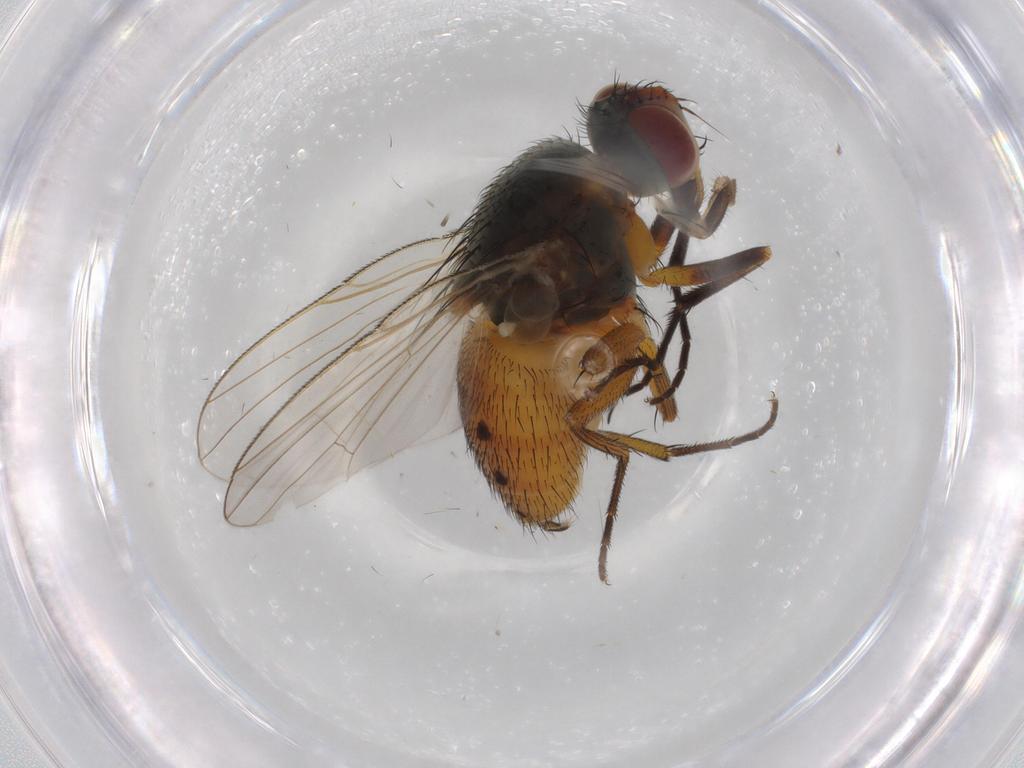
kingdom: Animalia
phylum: Arthropoda
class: Insecta
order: Diptera
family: Muscidae
